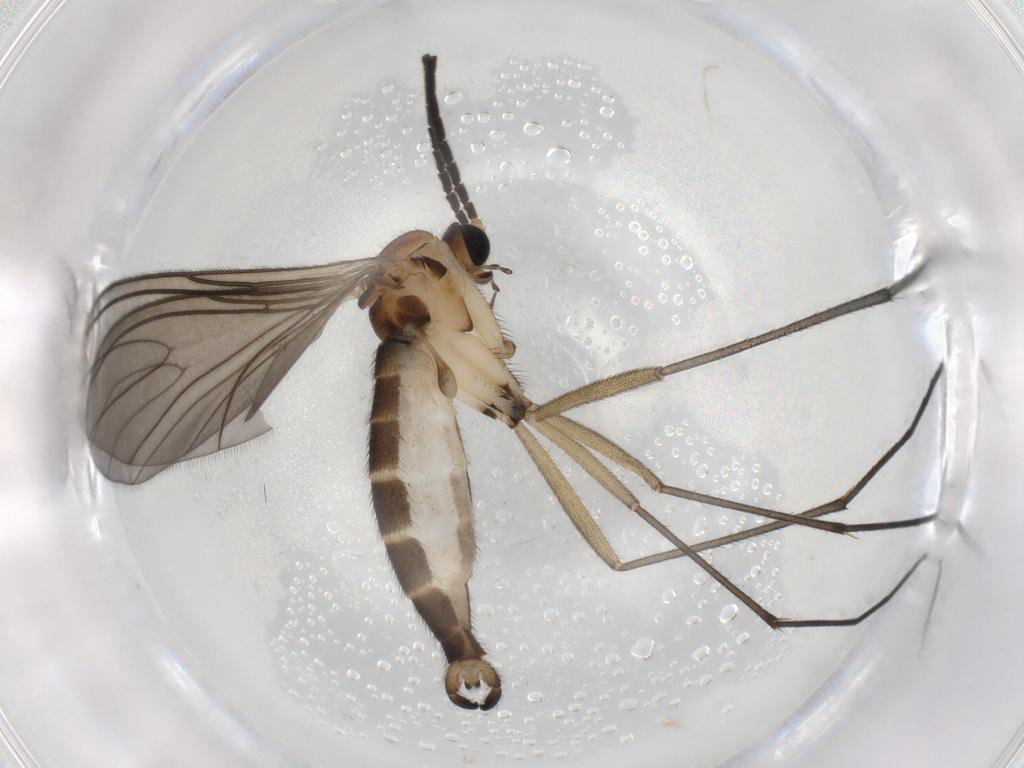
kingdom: Animalia
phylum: Arthropoda
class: Insecta
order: Diptera
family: Sciaridae
